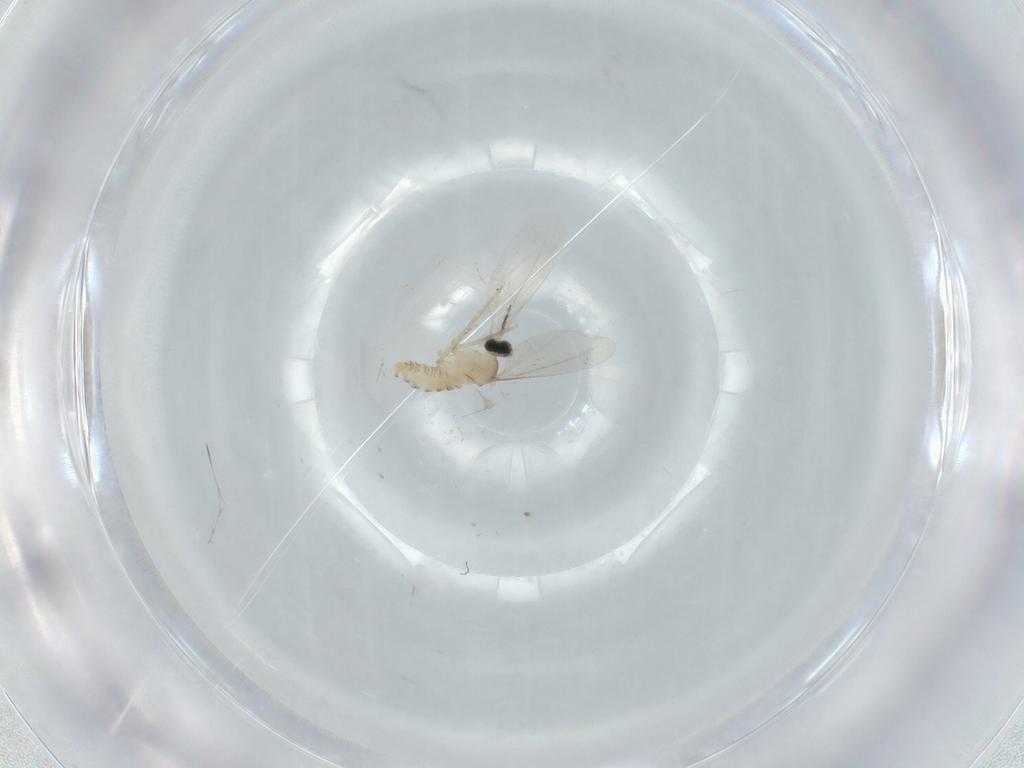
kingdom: Animalia
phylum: Arthropoda
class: Insecta
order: Diptera
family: Cecidomyiidae
